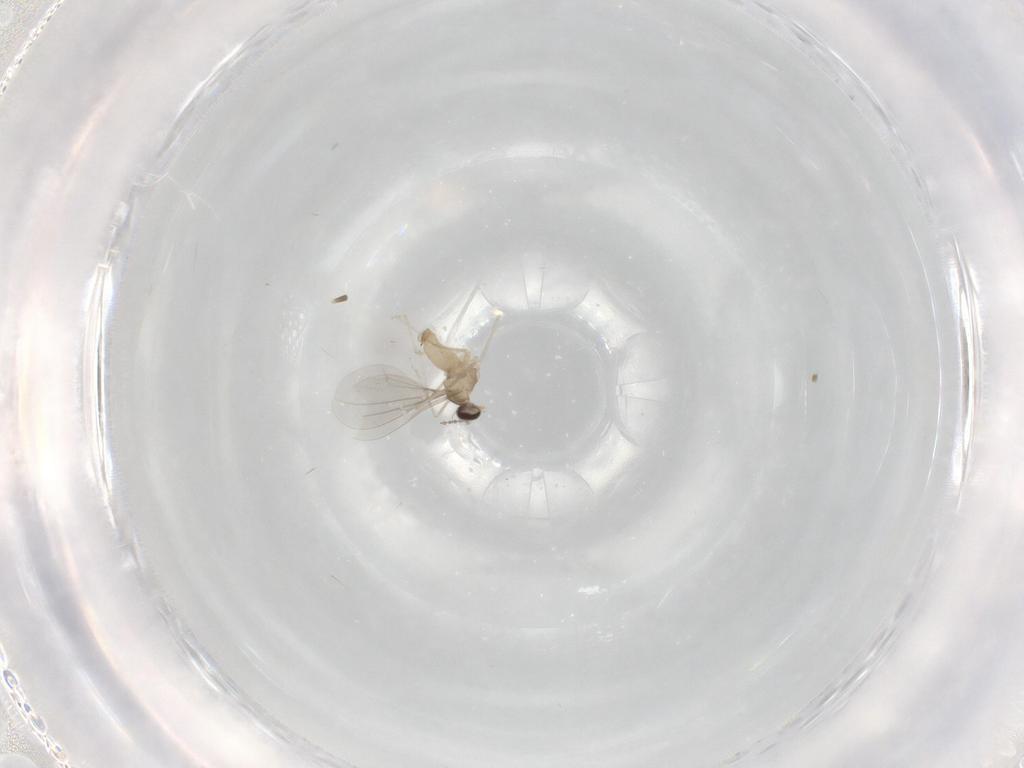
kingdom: Animalia
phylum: Arthropoda
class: Insecta
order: Diptera
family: Cecidomyiidae
